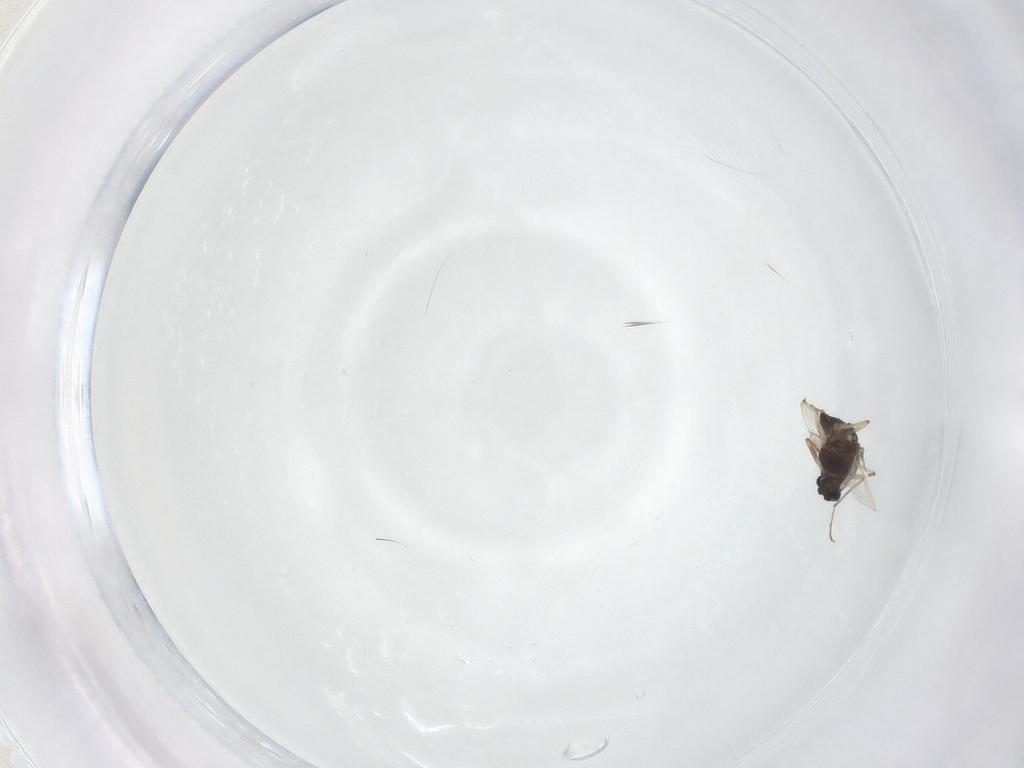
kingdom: Animalia
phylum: Arthropoda
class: Insecta
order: Diptera
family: Chironomidae
